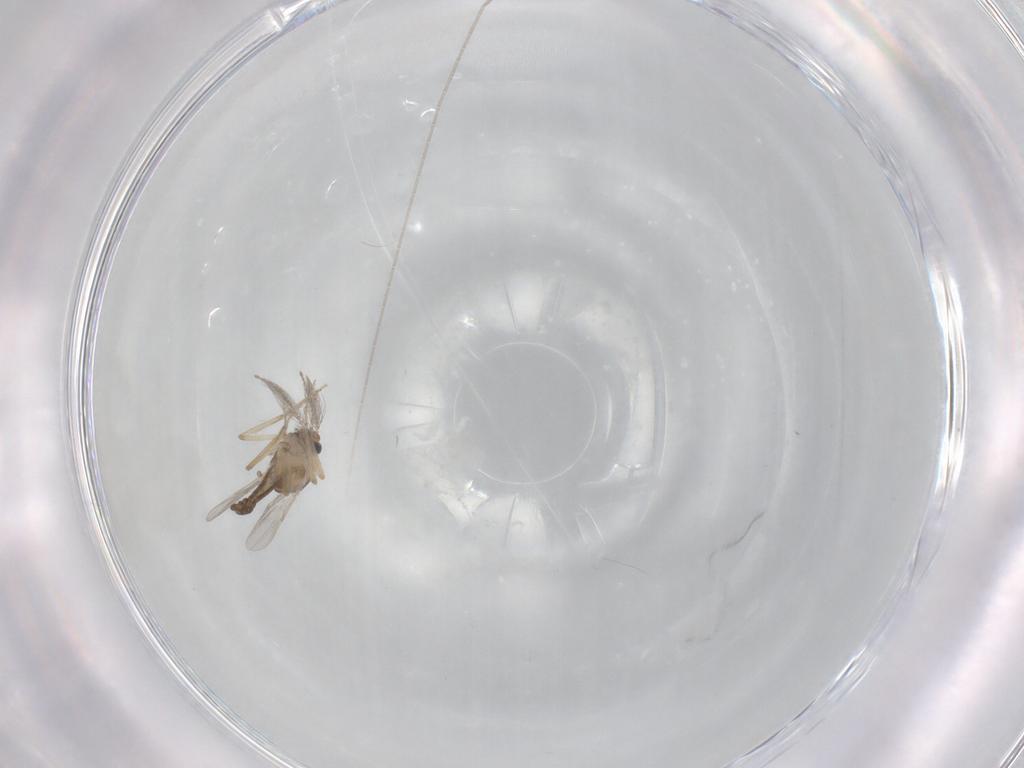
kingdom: Animalia
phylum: Arthropoda
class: Insecta
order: Diptera
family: Ceratopogonidae
